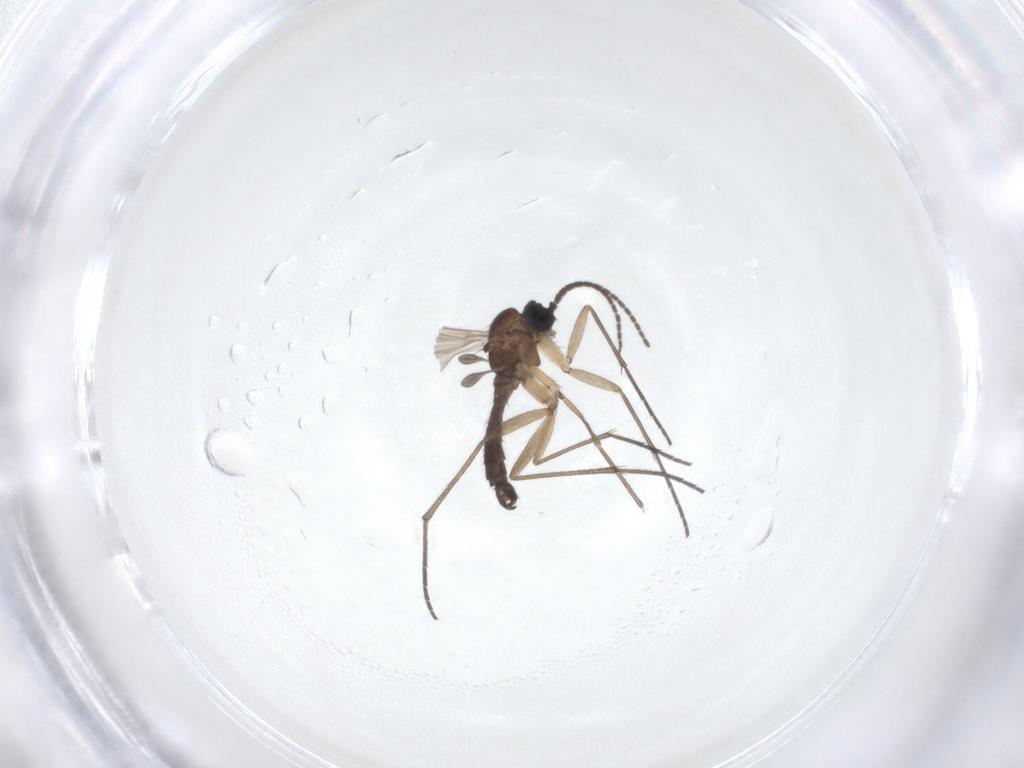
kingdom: Animalia
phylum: Arthropoda
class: Insecta
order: Diptera
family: Sciaridae
